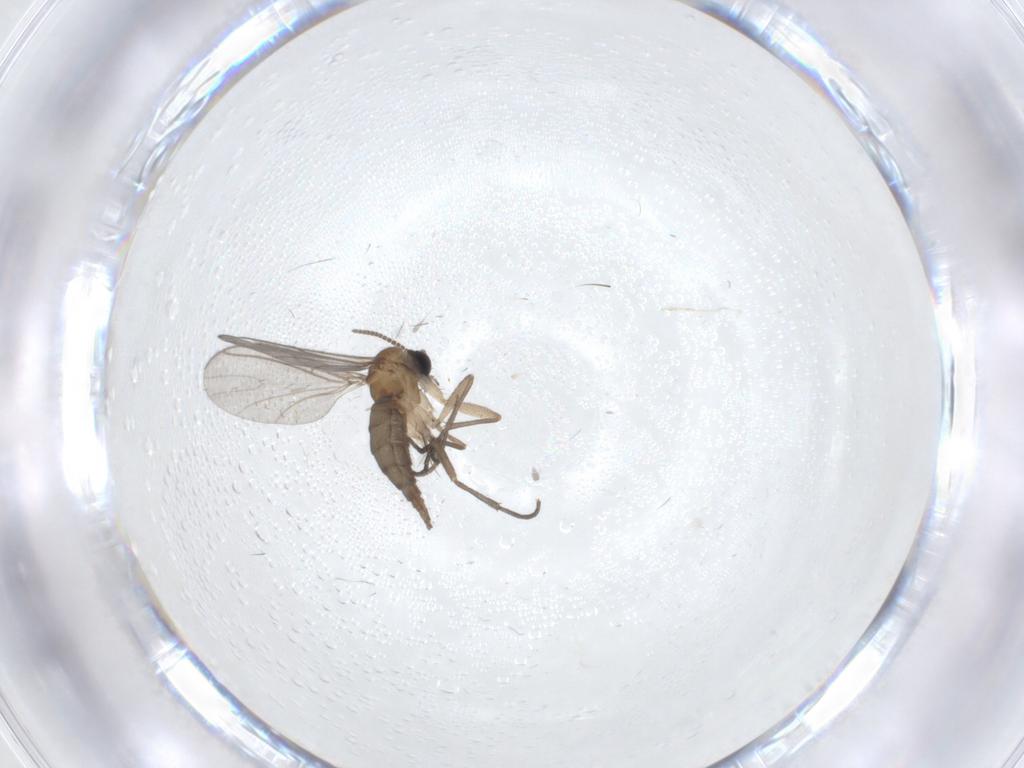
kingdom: Animalia
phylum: Arthropoda
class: Insecta
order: Diptera
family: Sciaridae
